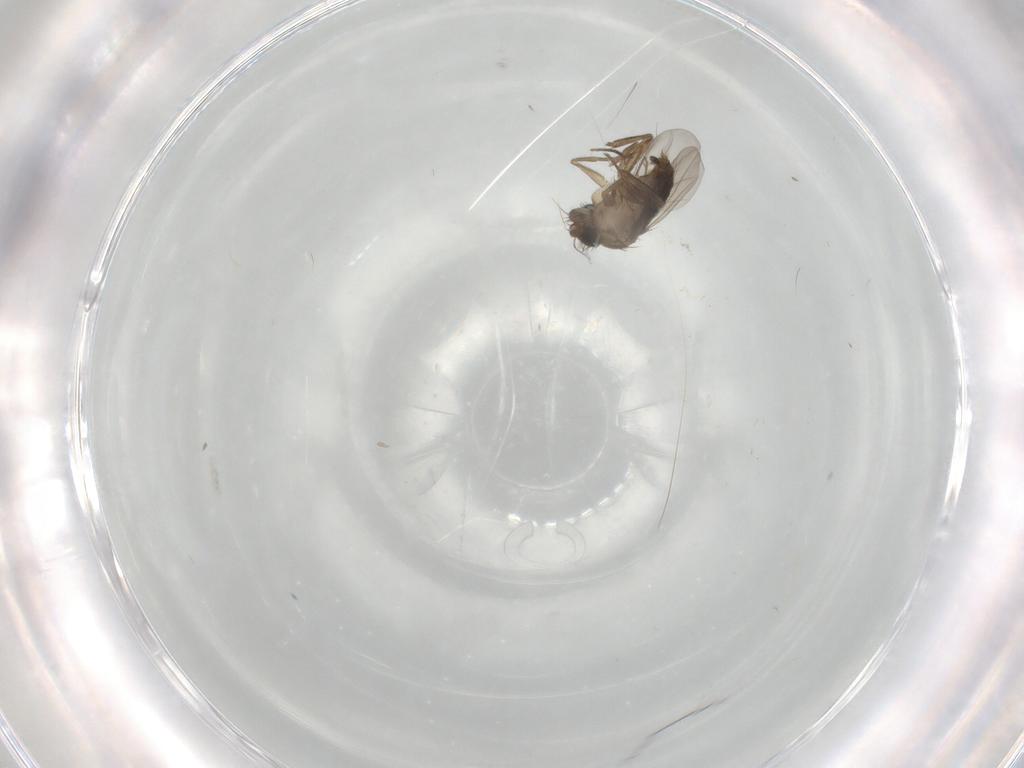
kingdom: Animalia
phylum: Arthropoda
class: Insecta
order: Diptera
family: Phoridae
